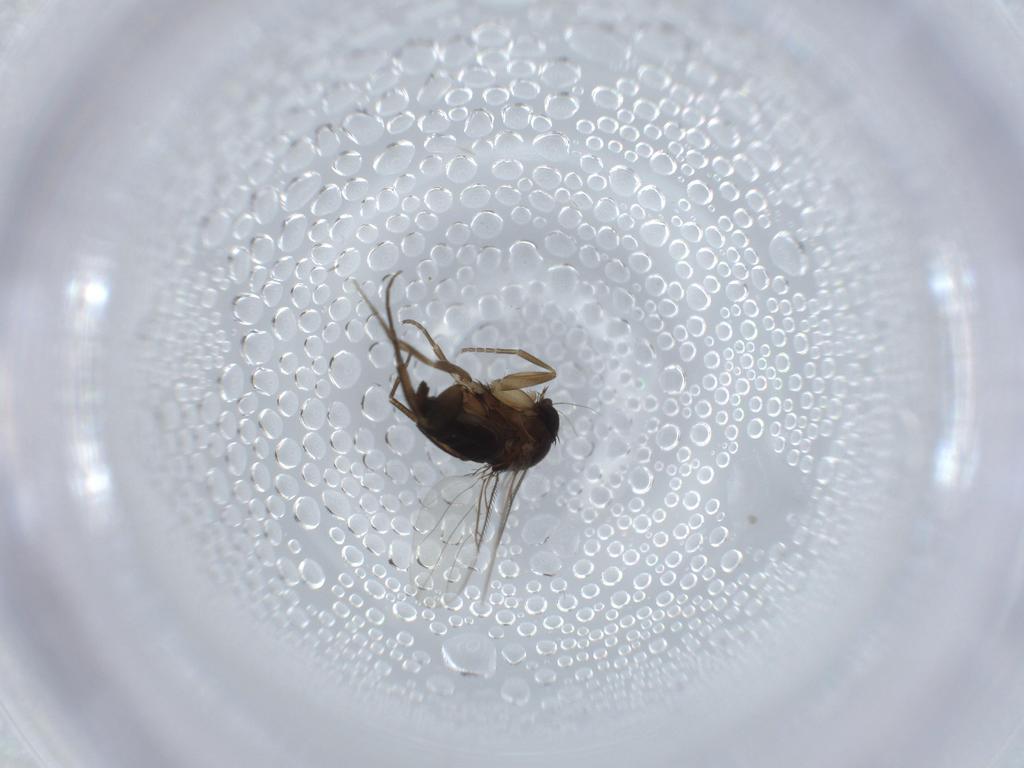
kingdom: Animalia
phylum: Arthropoda
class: Insecta
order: Diptera
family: Phoridae
